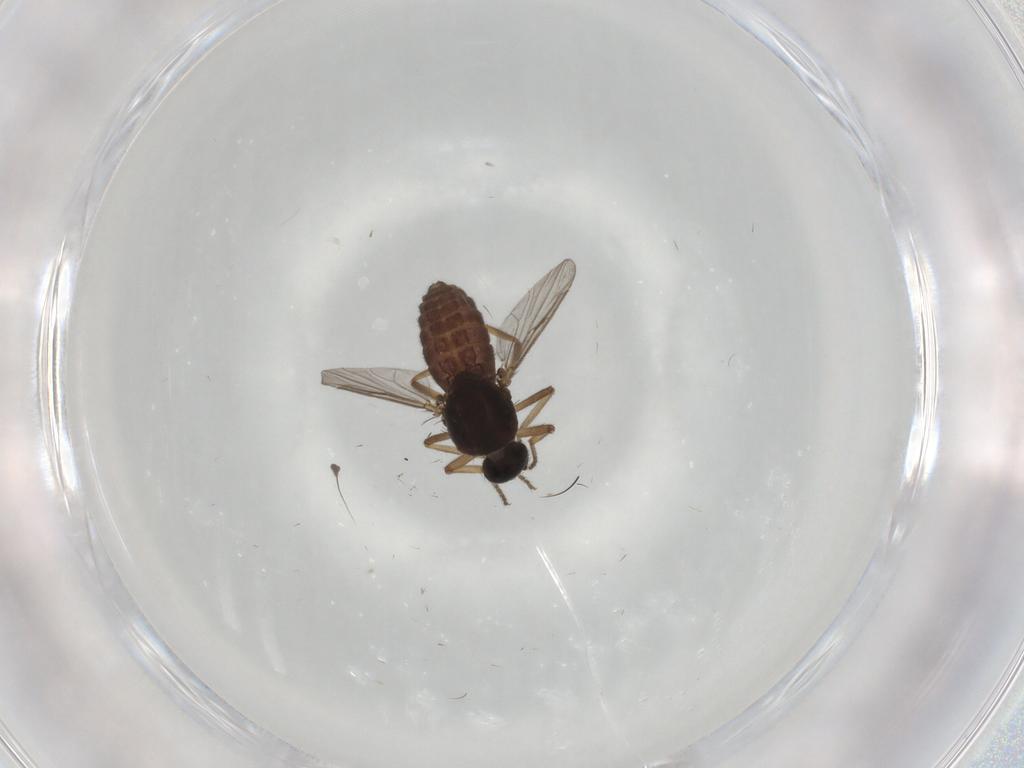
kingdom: Animalia
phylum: Arthropoda
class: Insecta
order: Diptera
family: Ceratopogonidae
